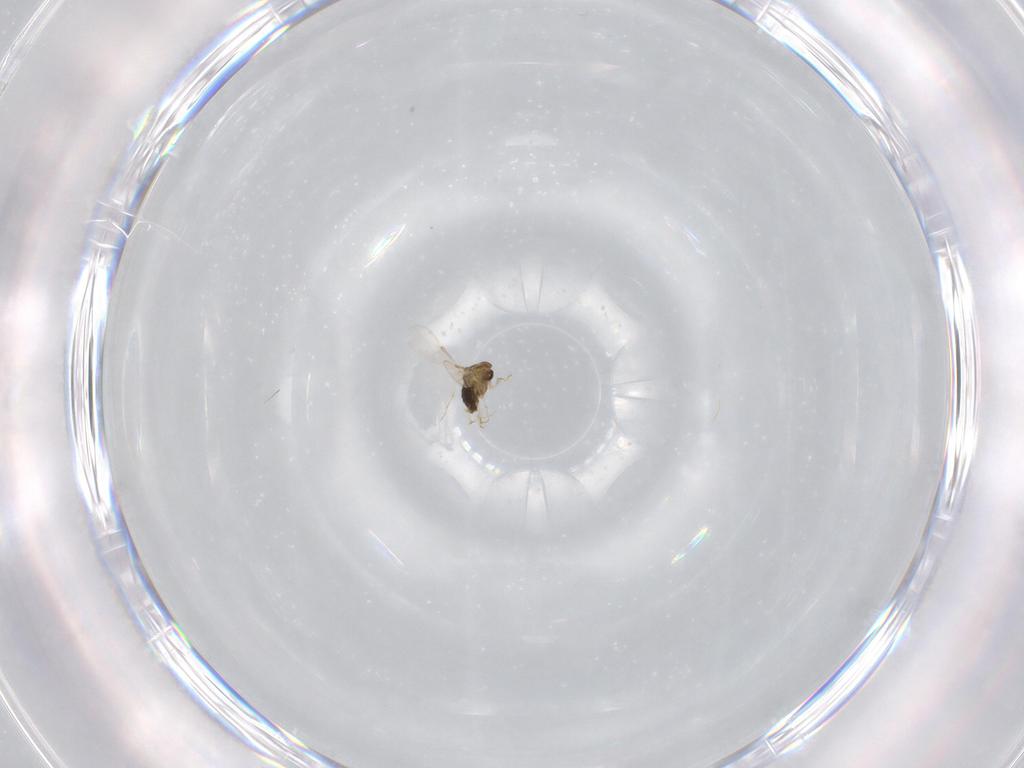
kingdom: Animalia
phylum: Arthropoda
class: Insecta
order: Diptera
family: Chironomidae
